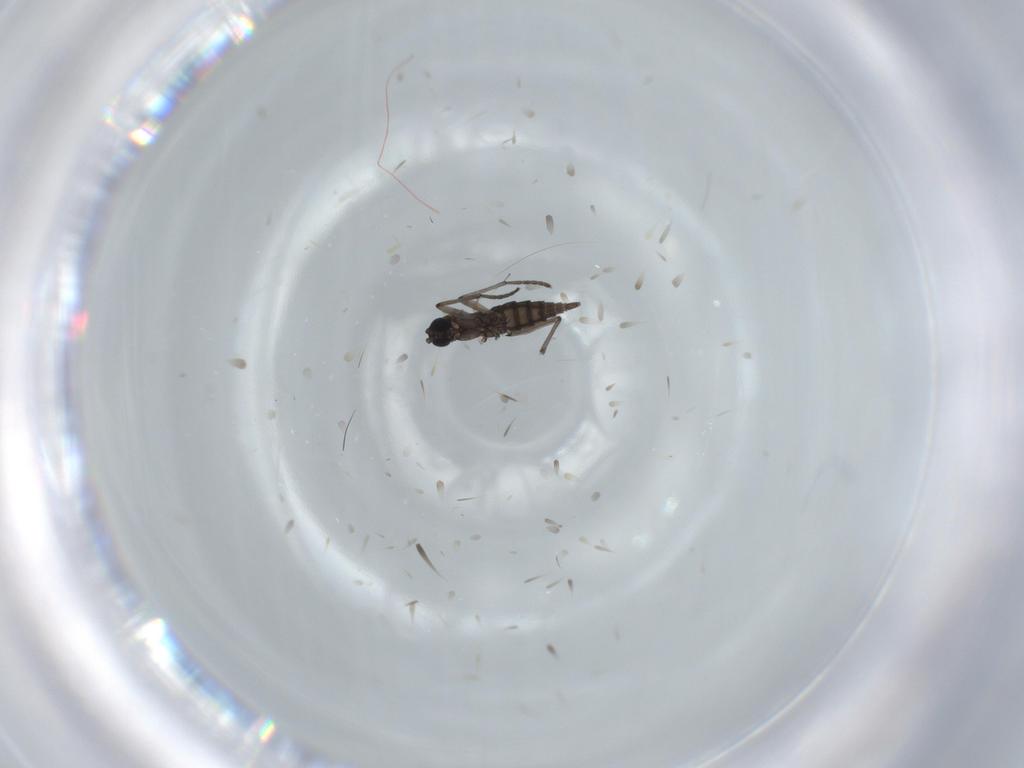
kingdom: Animalia
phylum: Arthropoda
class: Insecta
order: Diptera
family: Sciaridae
